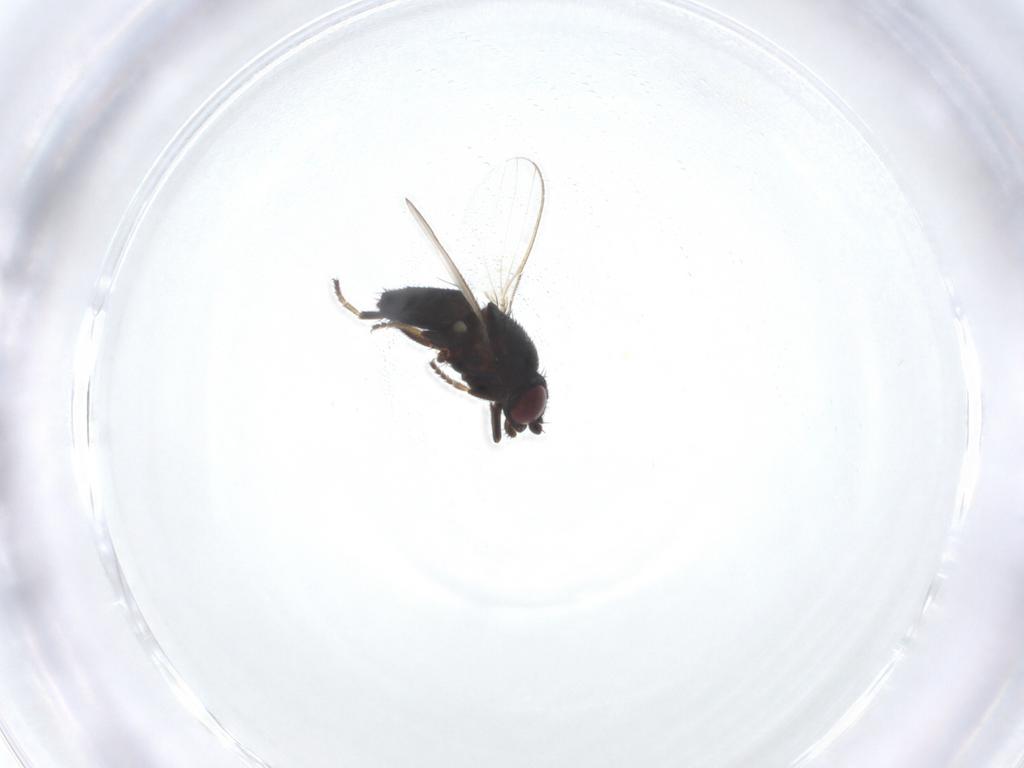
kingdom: Animalia
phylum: Arthropoda
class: Insecta
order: Diptera
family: Milichiidae
